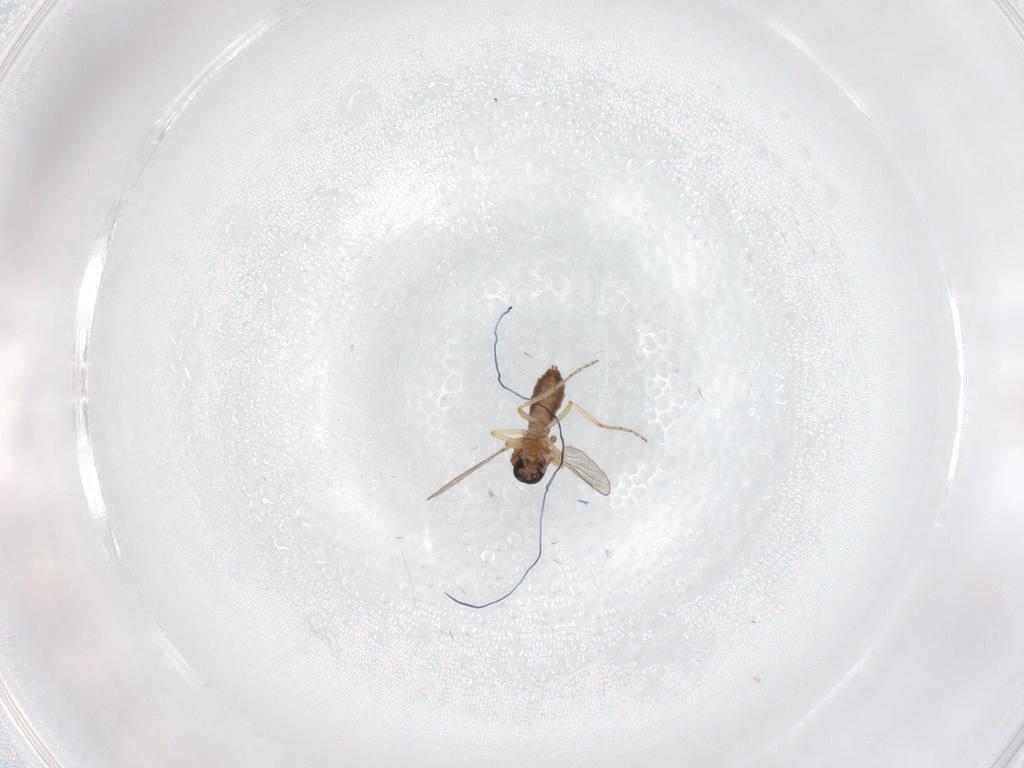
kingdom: Animalia
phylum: Arthropoda
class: Insecta
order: Diptera
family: Ceratopogonidae
